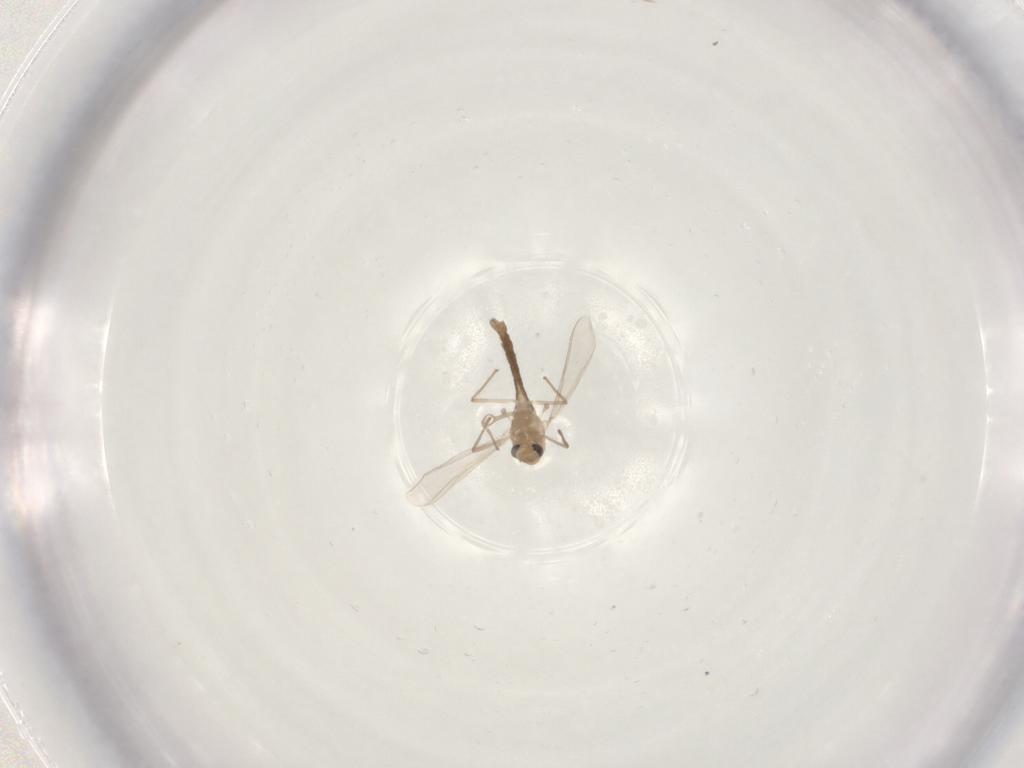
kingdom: Animalia
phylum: Arthropoda
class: Insecta
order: Diptera
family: Chironomidae
